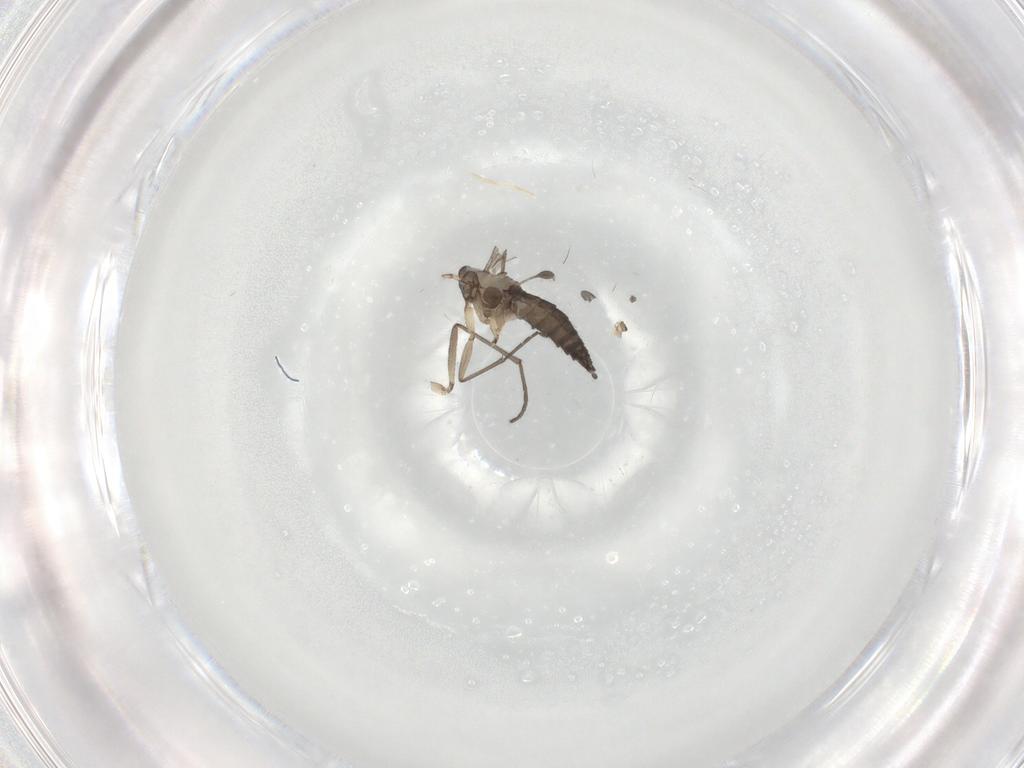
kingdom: Animalia
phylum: Arthropoda
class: Insecta
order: Diptera
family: Sciaridae
